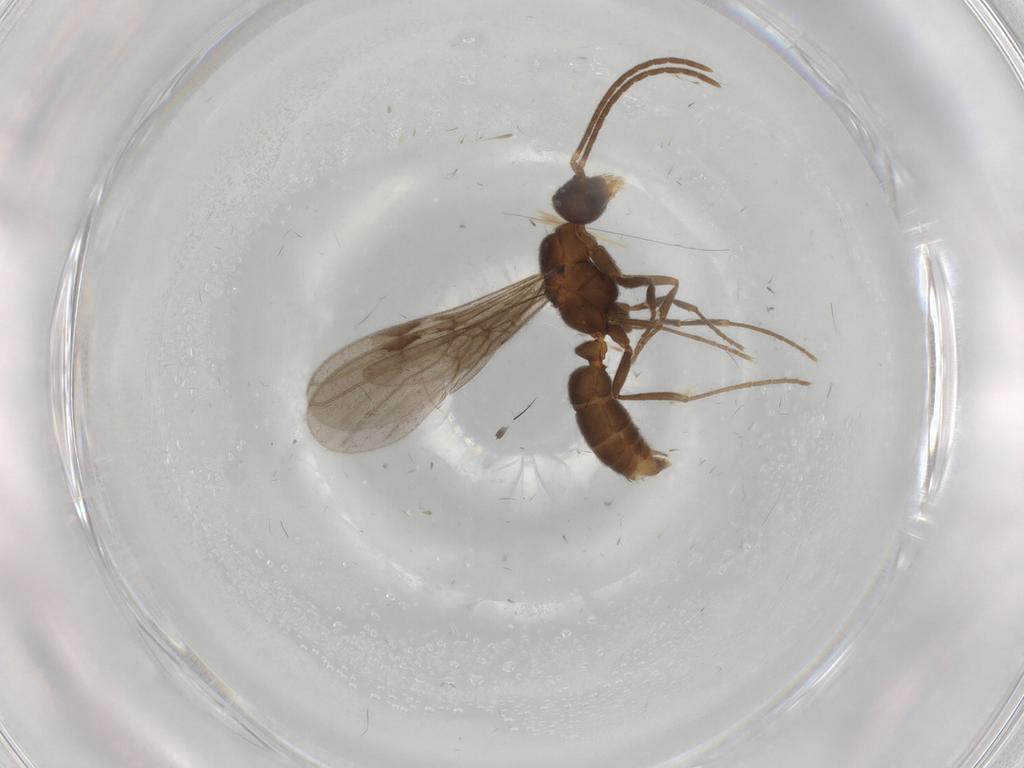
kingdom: Animalia
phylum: Arthropoda
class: Insecta
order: Hymenoptera
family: Formicidae
